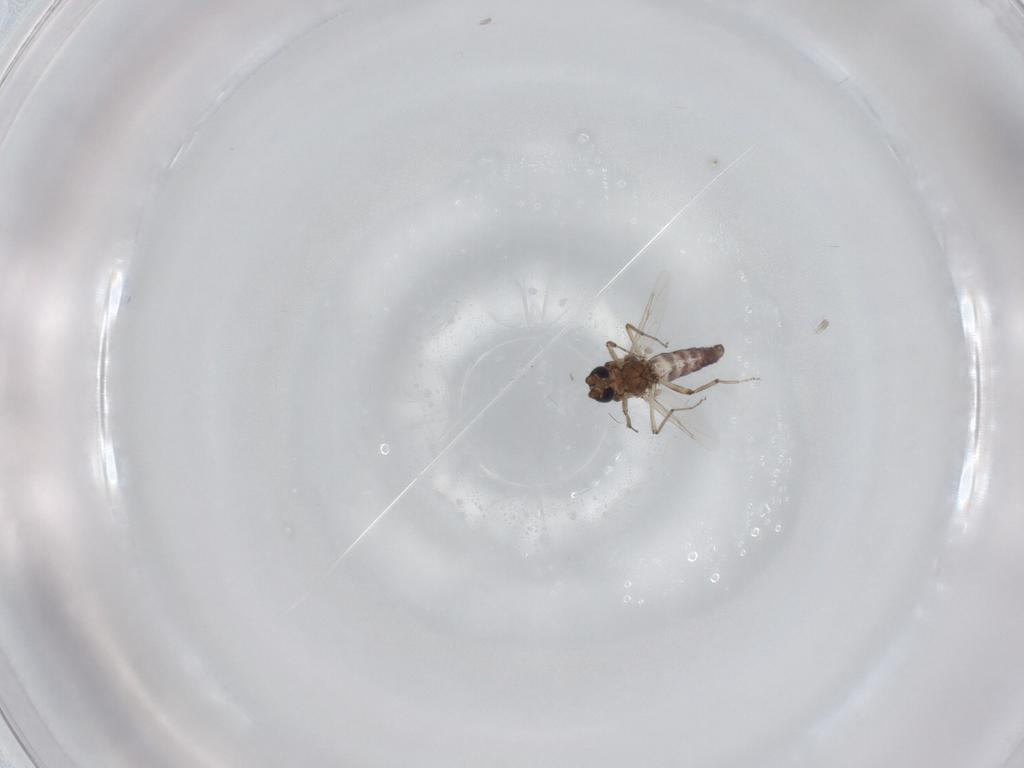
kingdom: Animalia
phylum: Arthropoda
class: Insecta
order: Diptera
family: Ceratopogonidae
